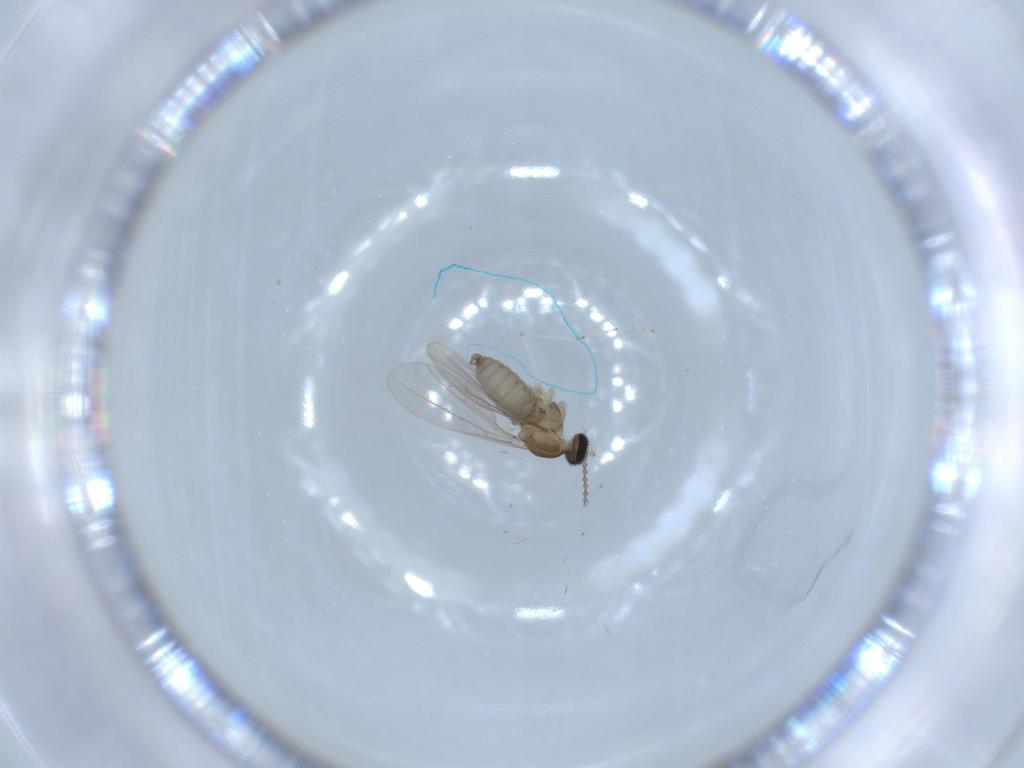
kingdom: Animalia
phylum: Arthropoda
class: Insecta
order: Diptera
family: Cecidomyiidae
